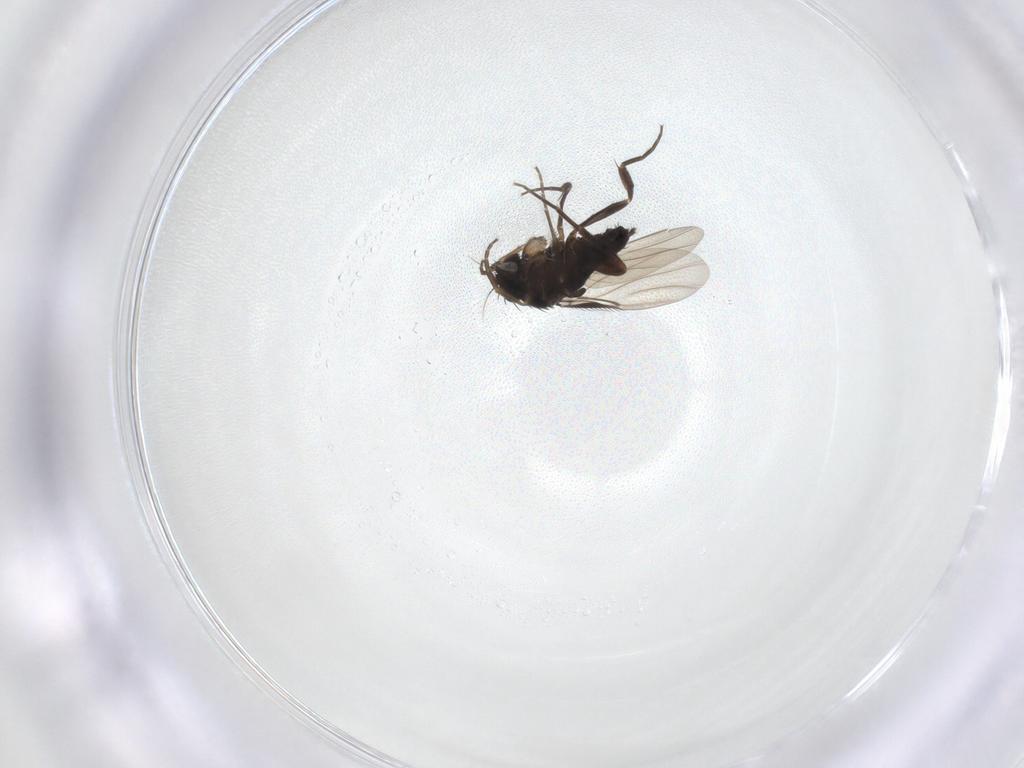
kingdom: Animalia
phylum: Arthropoda
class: Insecta
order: Diptera
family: Phoridae
